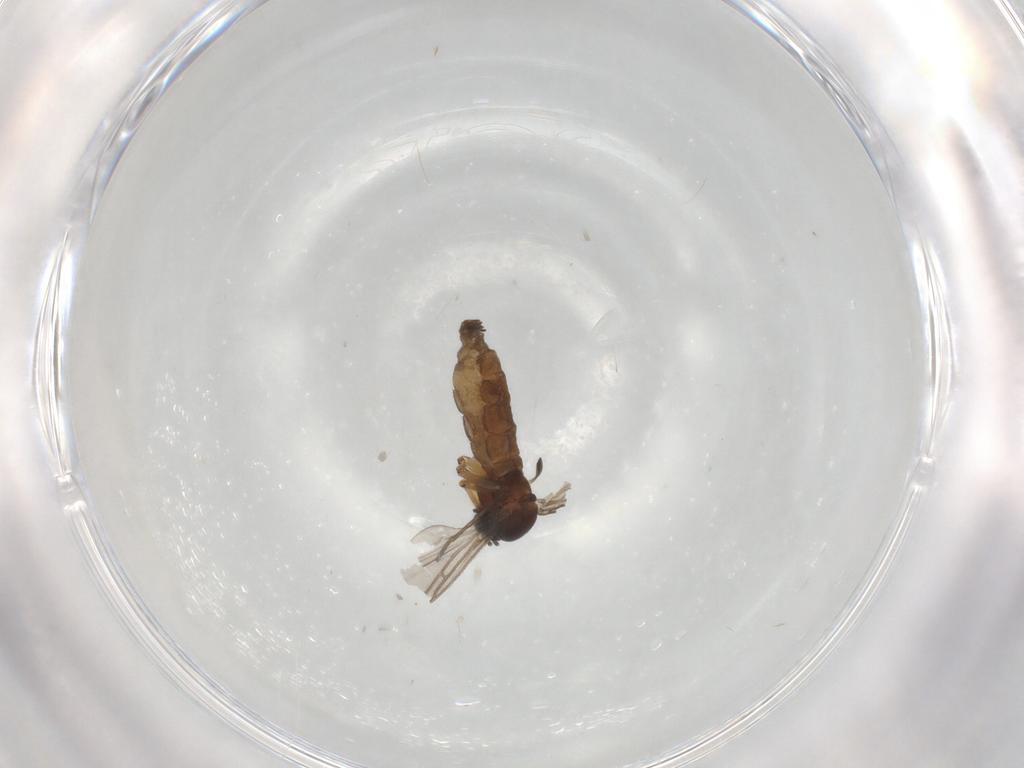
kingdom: Animalia
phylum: Arthropoda
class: Insecta
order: Diptera
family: Sciaridae
